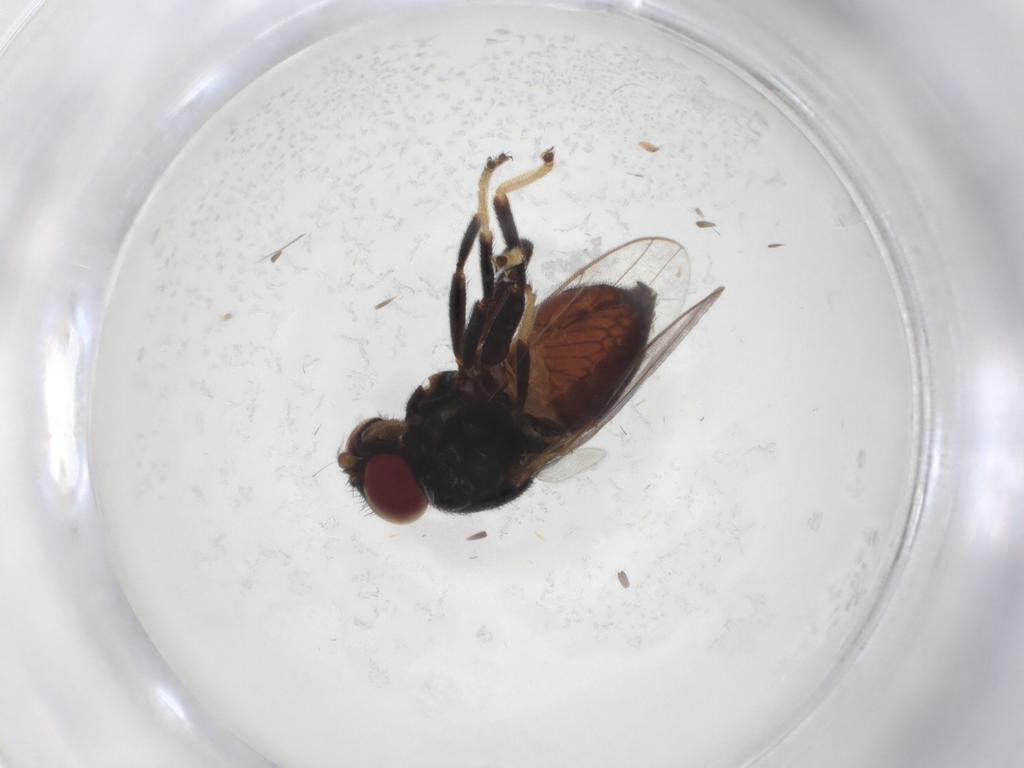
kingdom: Animalia
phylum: Arthropoda
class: Insecta
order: Diptera
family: Chloropidae
